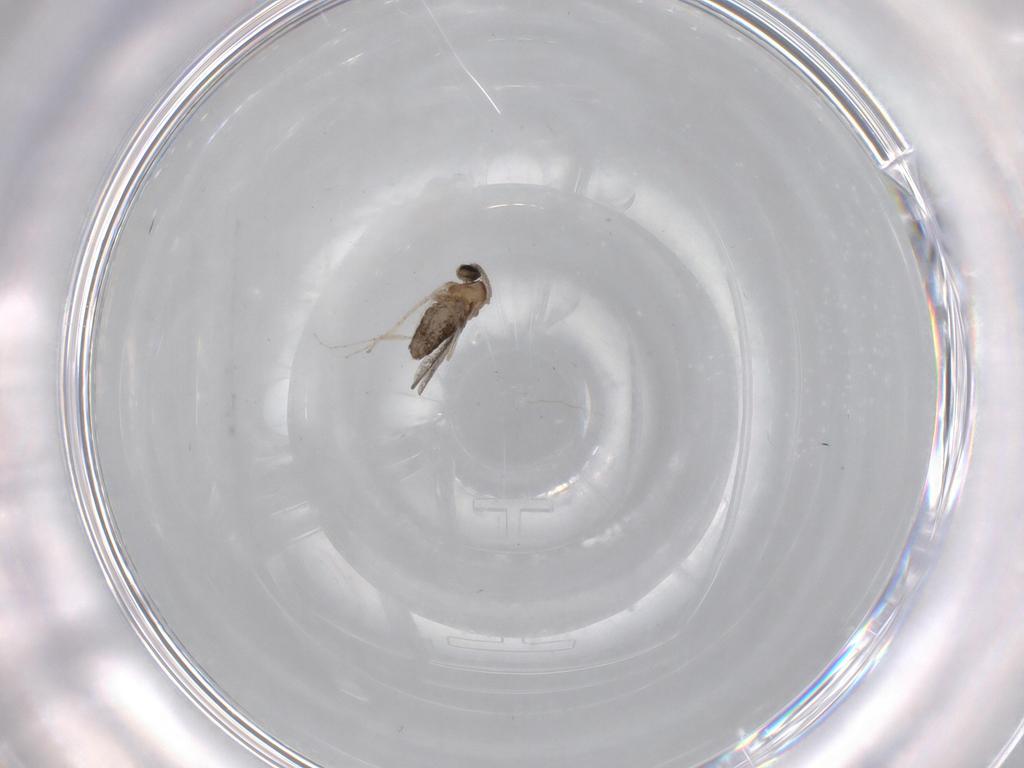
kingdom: Animalia
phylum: Arthropoda
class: Insecta
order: Diptera
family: Cecidomyiidae
